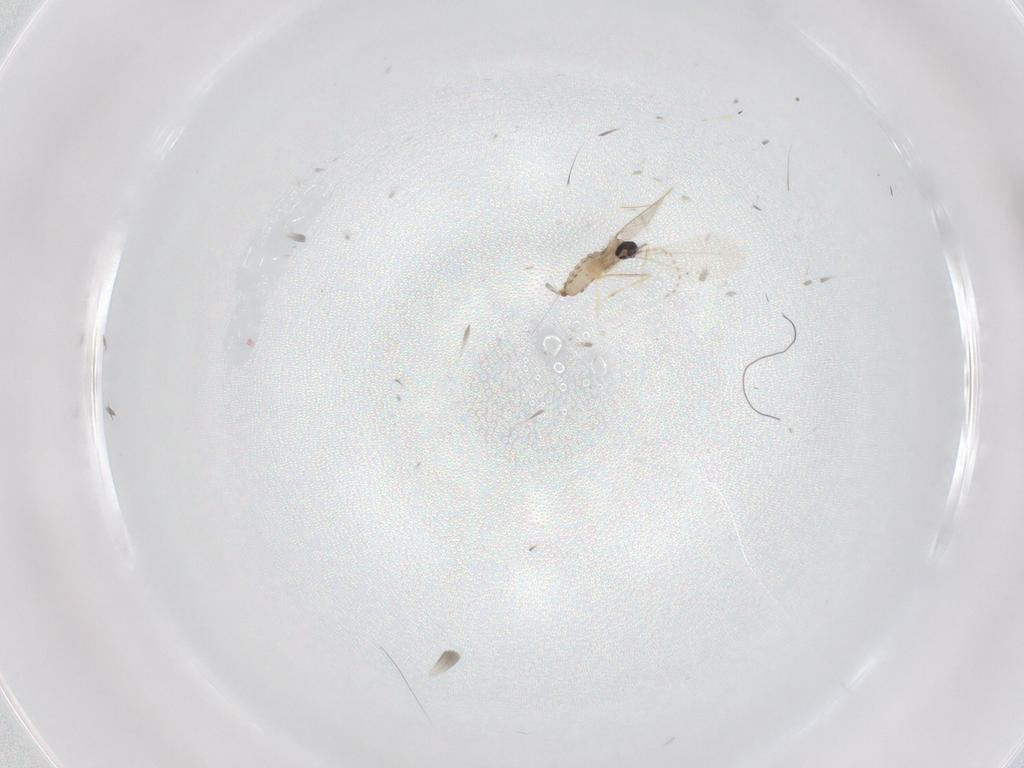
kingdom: Animalia
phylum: Arthropoda
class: Insecta
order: Diptera
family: Cecidomyiidae
